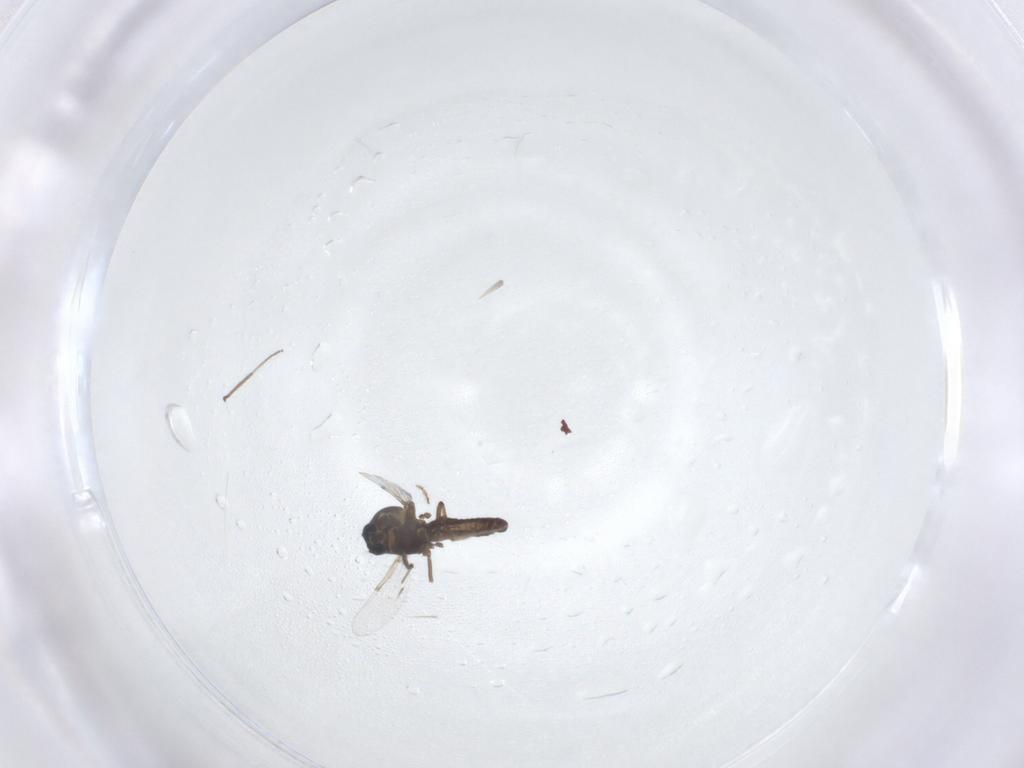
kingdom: Animalia
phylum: Arthropoda
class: Insecta
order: Diptera
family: Ceratopogonidae
